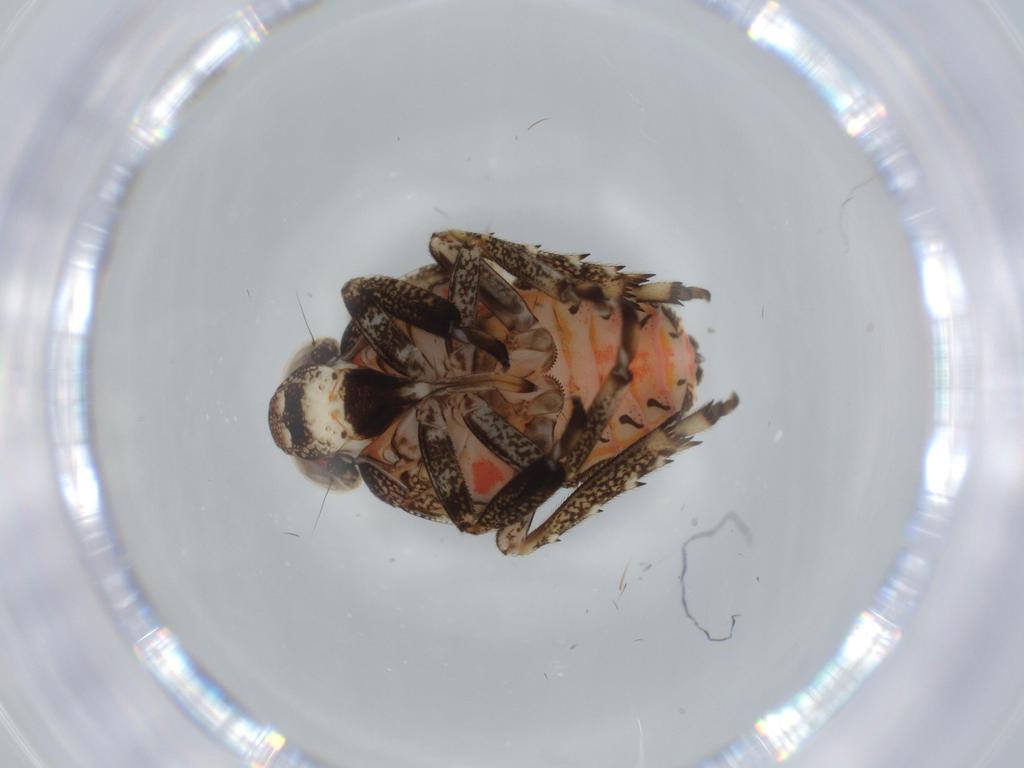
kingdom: Animalia
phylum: Arthropoda
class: Insecta
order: Hemiptera
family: Issidae
